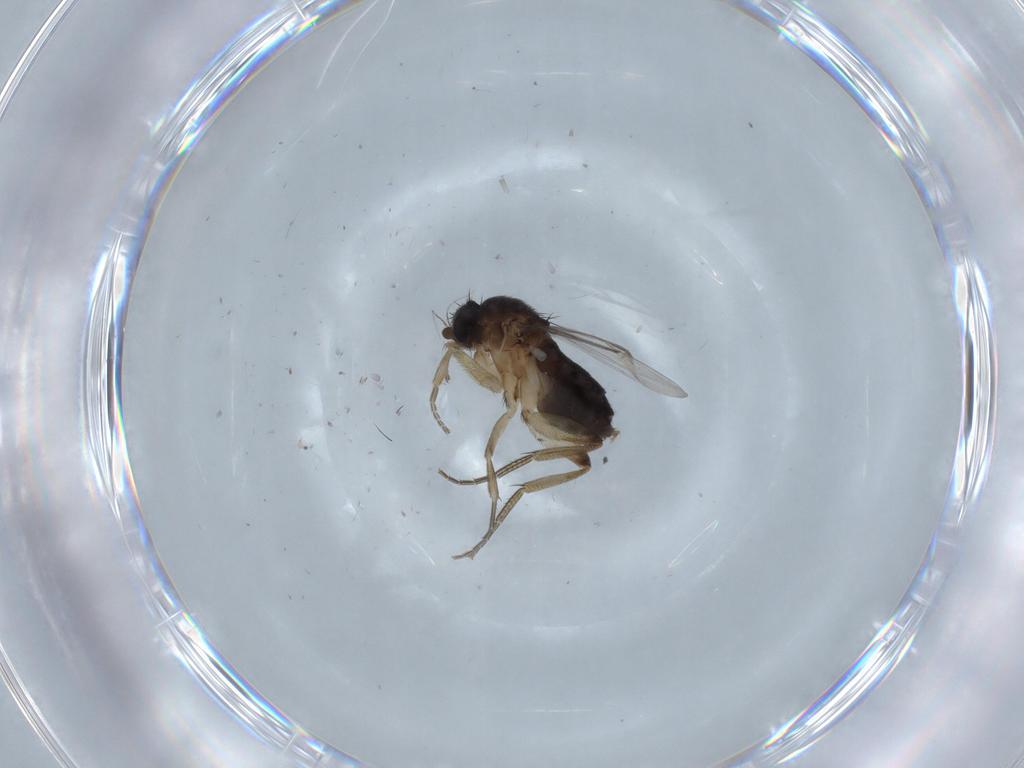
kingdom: Animalia
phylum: Arthropoda
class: Insecta
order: Diptera
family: Phoridae
